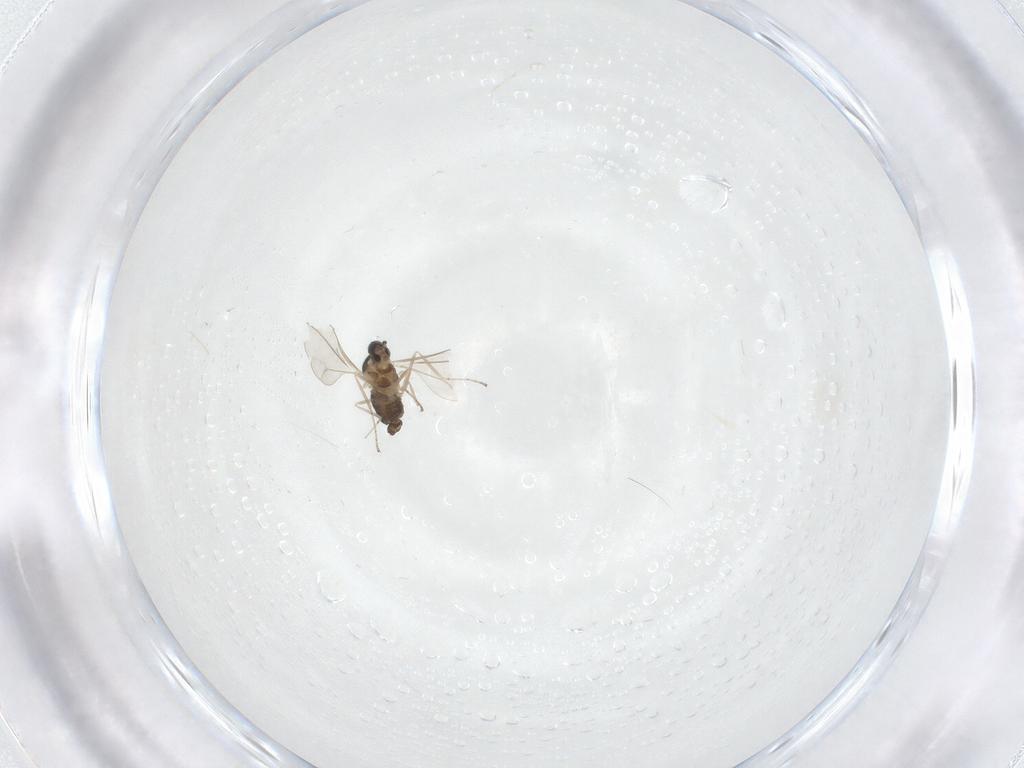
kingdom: Animalia
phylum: Arthropoda
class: Insecta
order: Diptera
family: Cecidomyiidae
